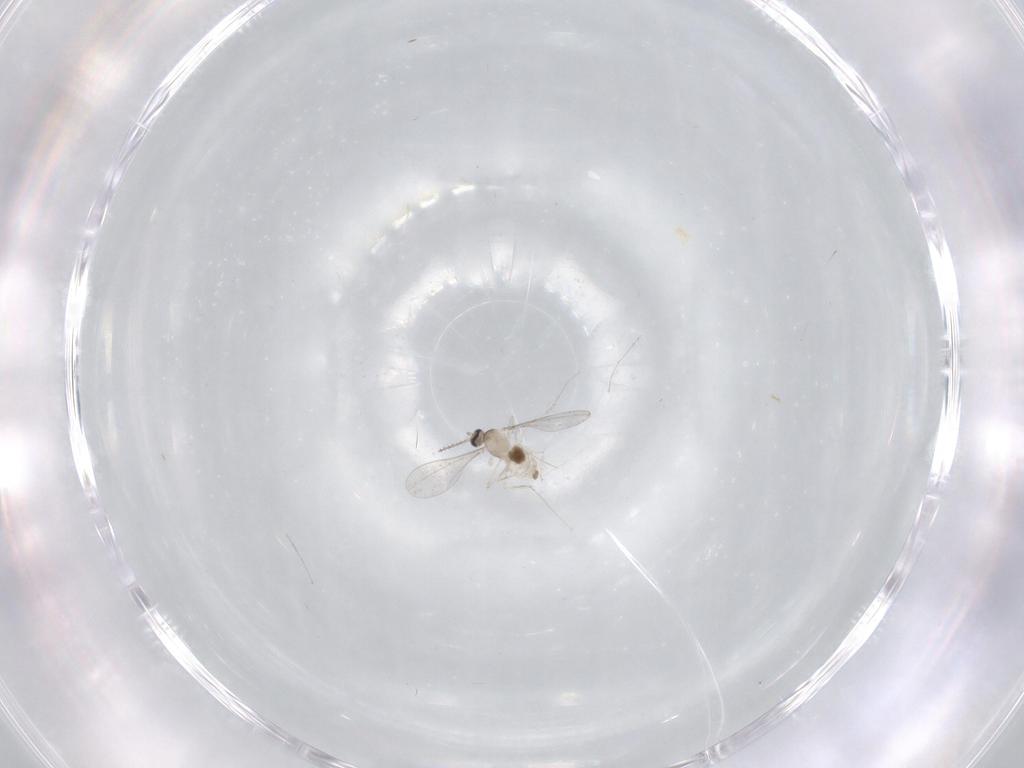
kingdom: Animalia
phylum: Arthropoda
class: Insecta
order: Diptera
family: Cecidomyiidae
